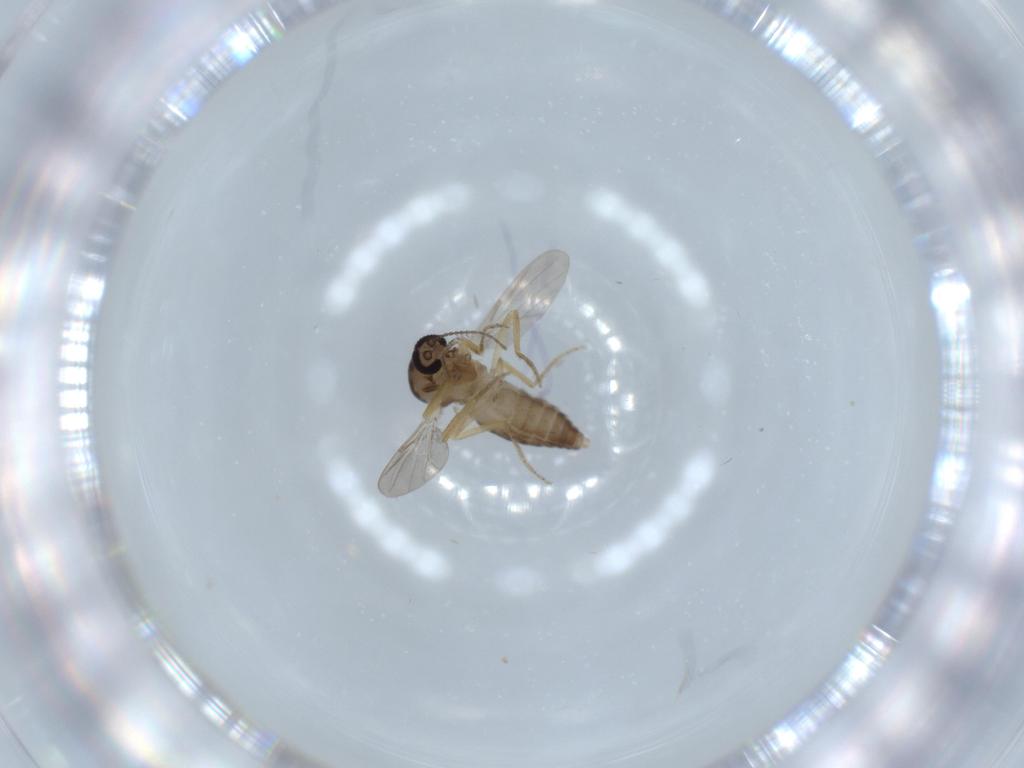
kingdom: Animalia
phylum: Arthropoda
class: Insecta
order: Diptera
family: Ceratopogonidae
